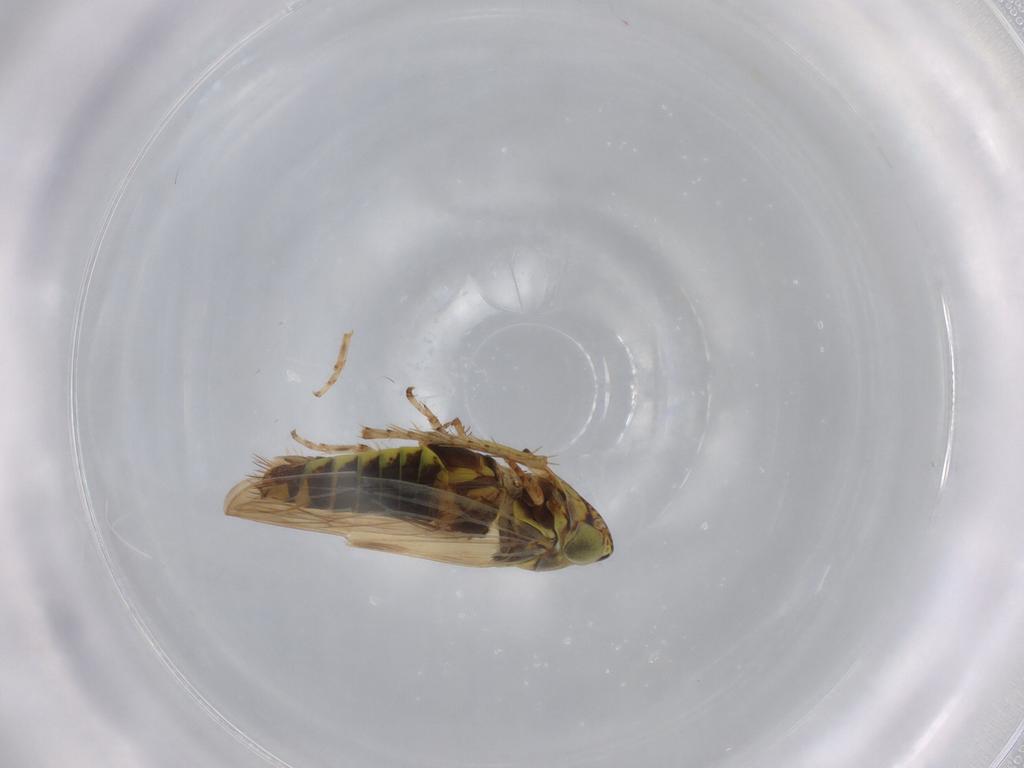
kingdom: Animalia
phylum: Arthropoda
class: Insecta
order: Hemiptera
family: Cicadellidae
